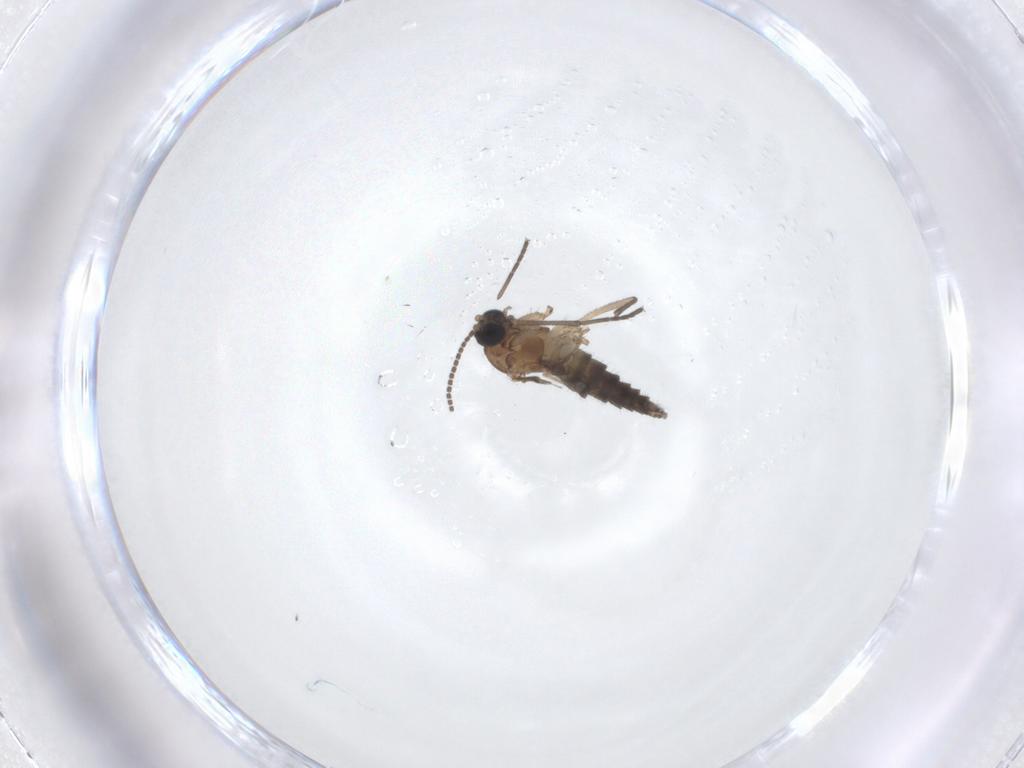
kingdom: Animalia
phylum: Arthropoda
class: Insecta
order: Diptera
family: Sciaridae
